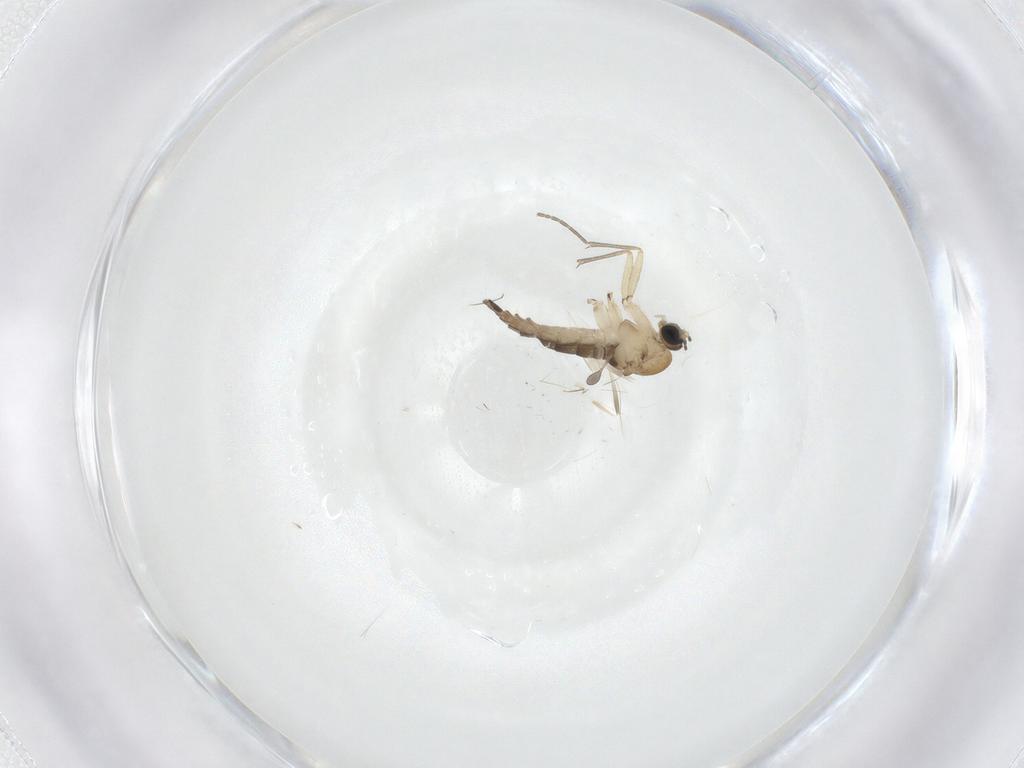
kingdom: Animalia
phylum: Arthropoda
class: Insecta
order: Diptera
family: Sciaridae
